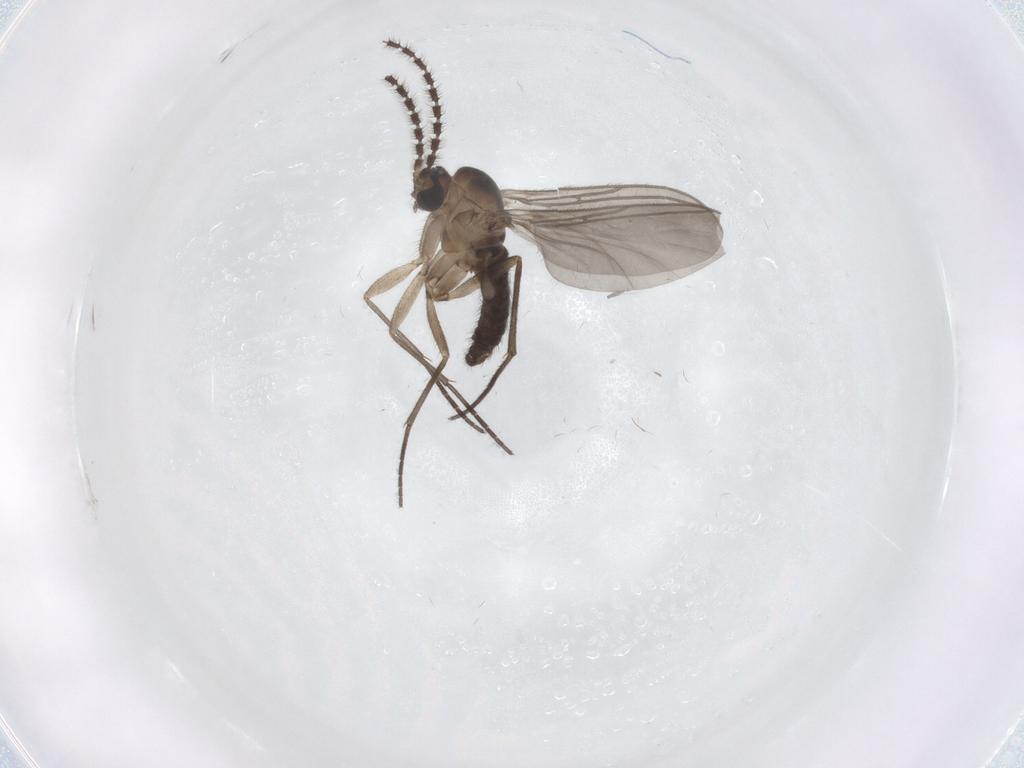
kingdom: Animalia
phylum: Arthropoda
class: Insecta
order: Diptera
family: Sciaridae
